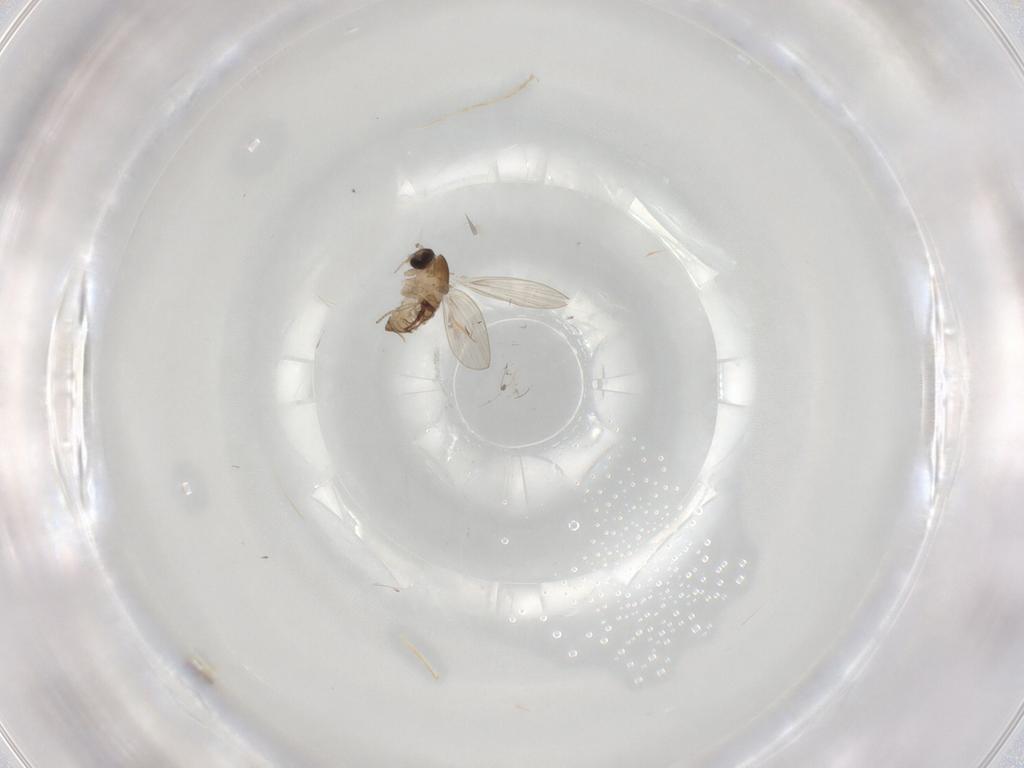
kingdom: Animalia
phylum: Arthropoda
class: Insecta
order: Diptera
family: Psychodidae
